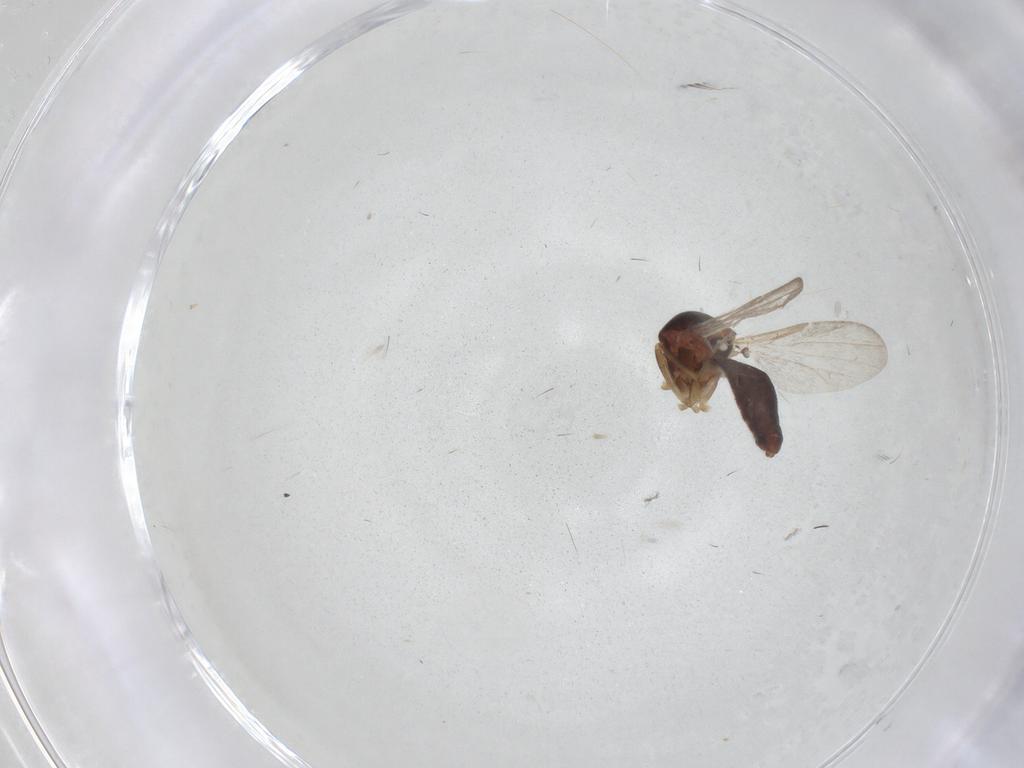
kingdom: Animalia
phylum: Arthropoda
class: Insecta
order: Diptera
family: Ceratopogonidae
